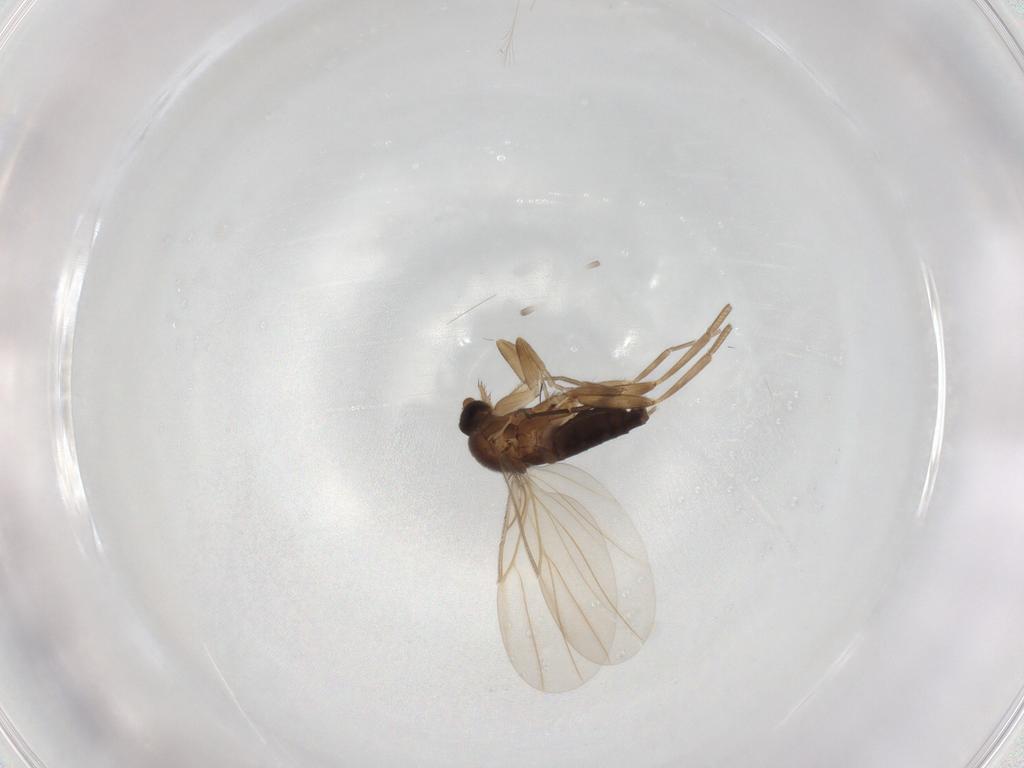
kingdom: Animalia
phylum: Arthropoda
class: Insecta
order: Diptera
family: Chironomidae
